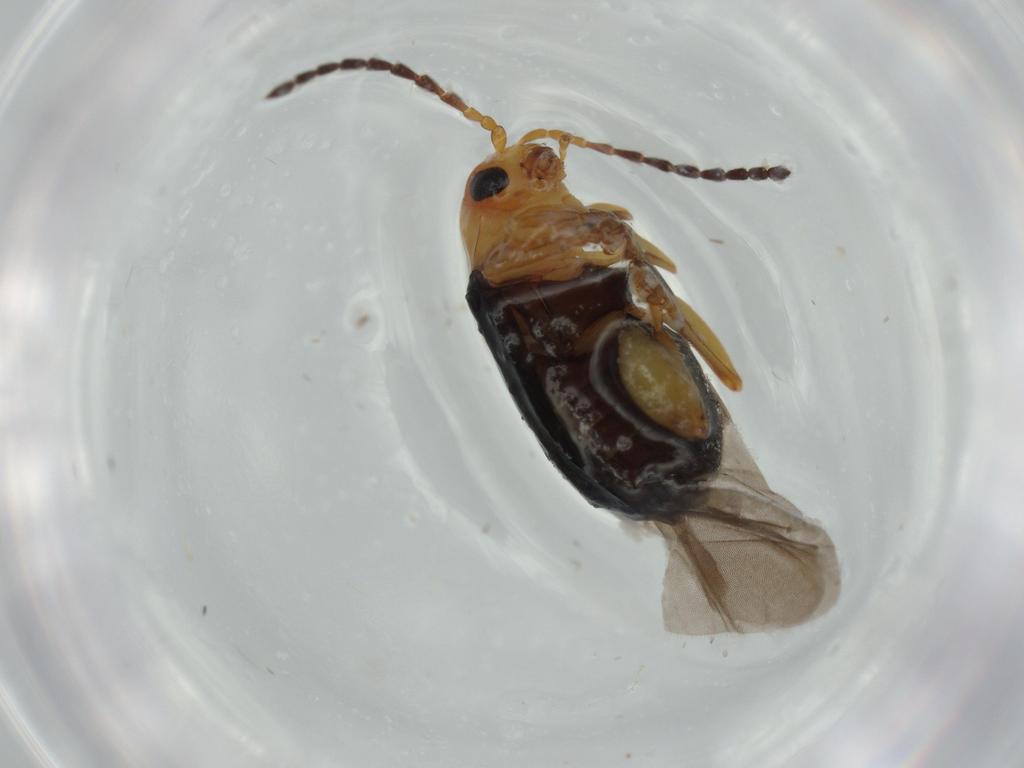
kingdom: Animalia
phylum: Arthropoda
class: Insecta
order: Coleoptera
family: Chrysomelidae
